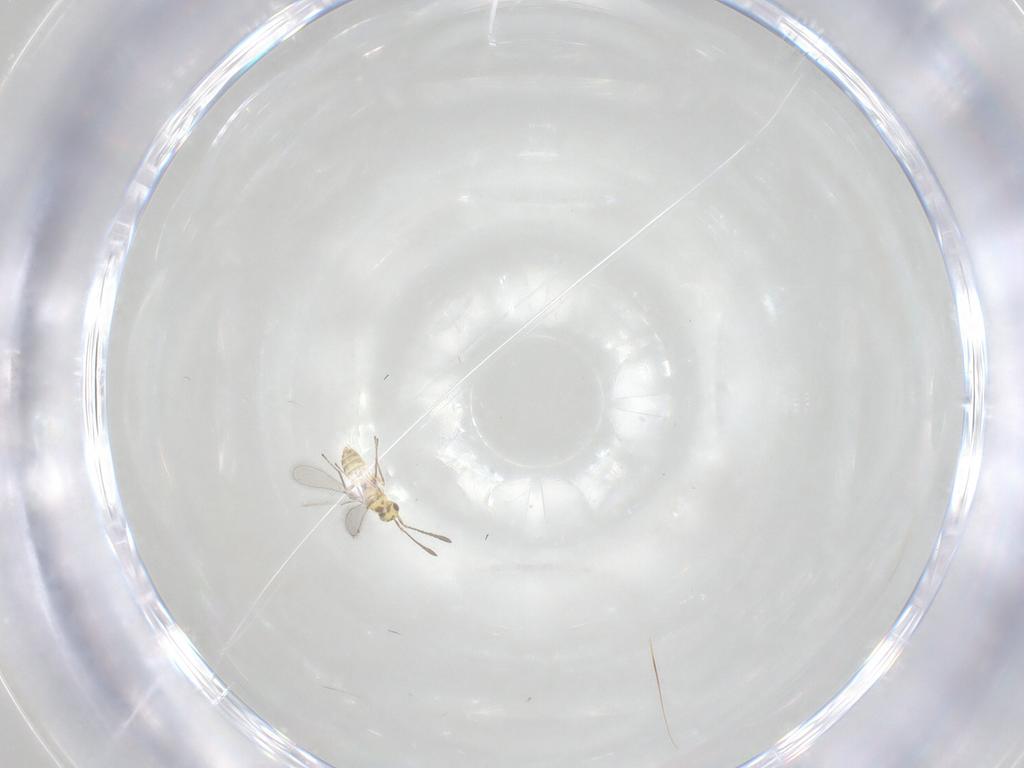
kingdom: Animalia
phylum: Arthropoda
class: Insecta
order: Hymenoptera
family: Mymaridae
